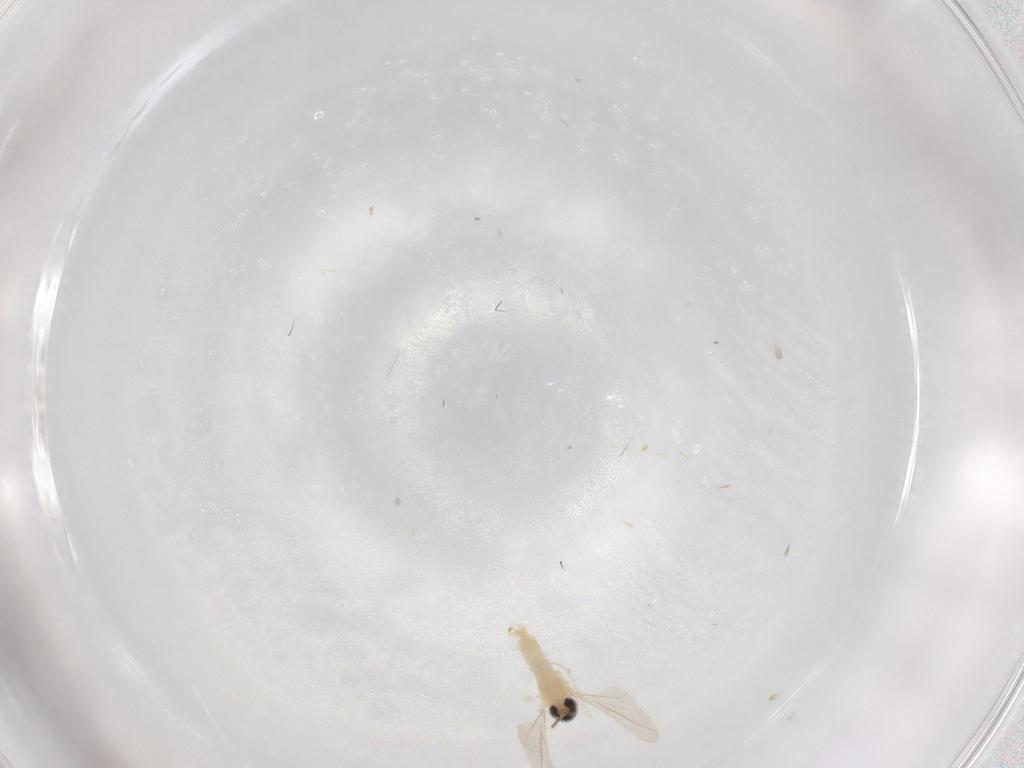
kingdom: Animalia
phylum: Arthropoda
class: Insecta
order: Diptera
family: Cecidomyiidae
